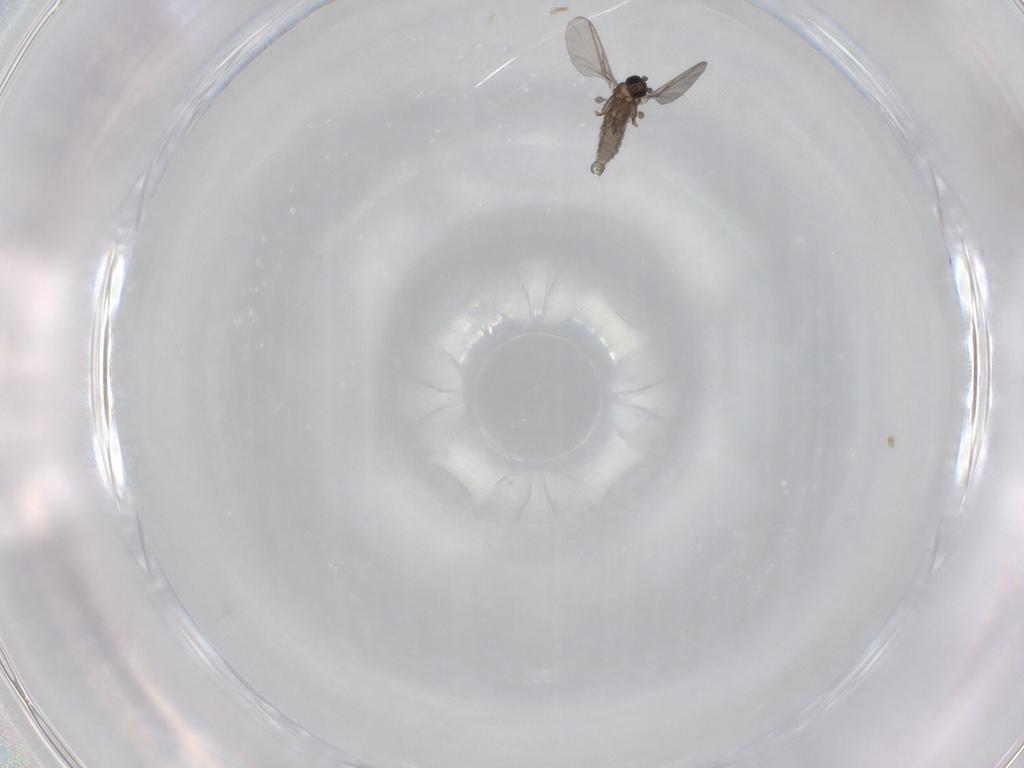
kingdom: Animalia
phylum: Arthropoda
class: Insecta
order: Diptera
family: Sciaridae
